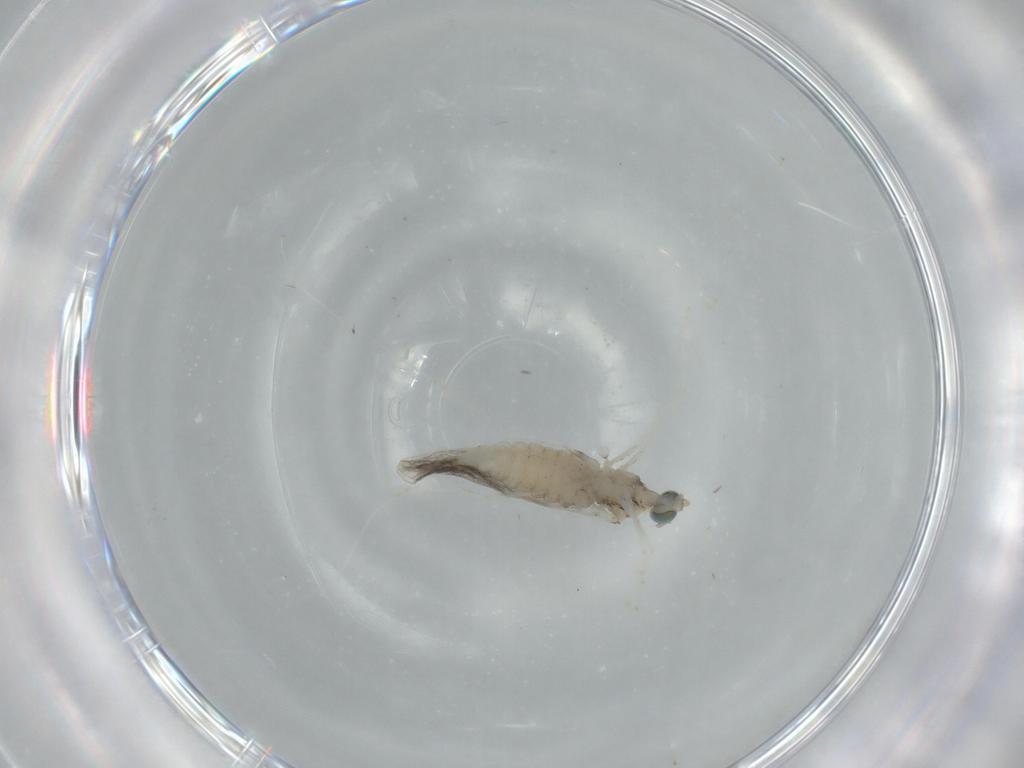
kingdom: Animalia
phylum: Arthropoda
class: Insecta
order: Diptera
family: Cecidomyiidae
